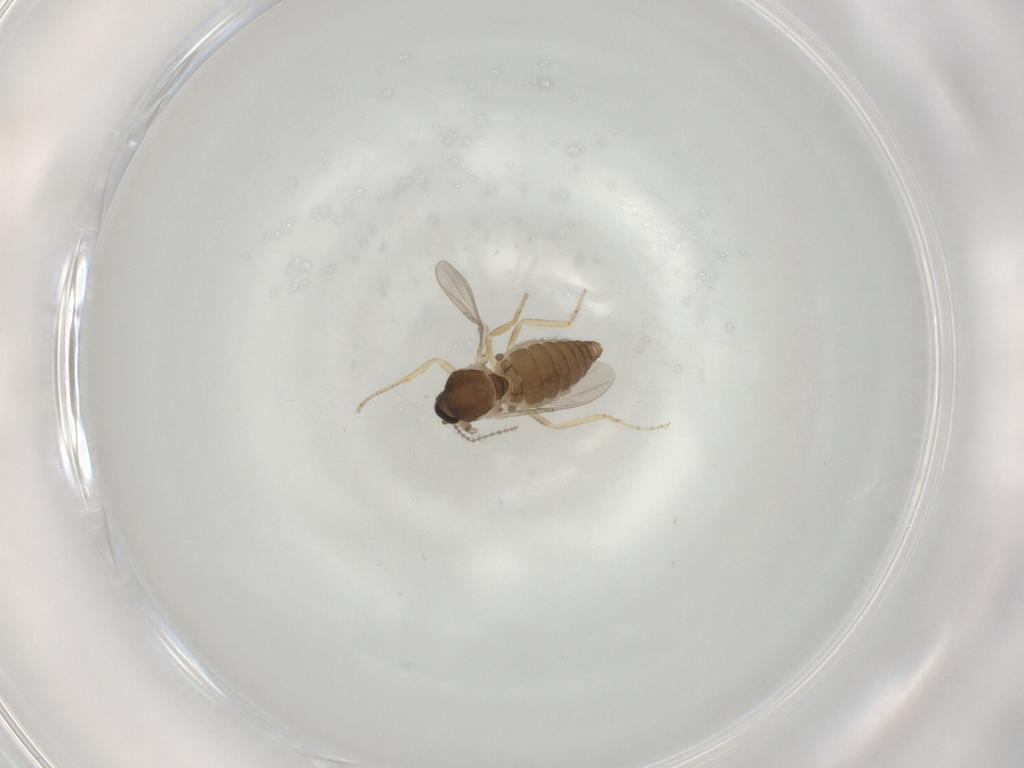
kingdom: Animalia
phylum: Arthropoda
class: Insecta
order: Diptera
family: Ceratopogonidae
